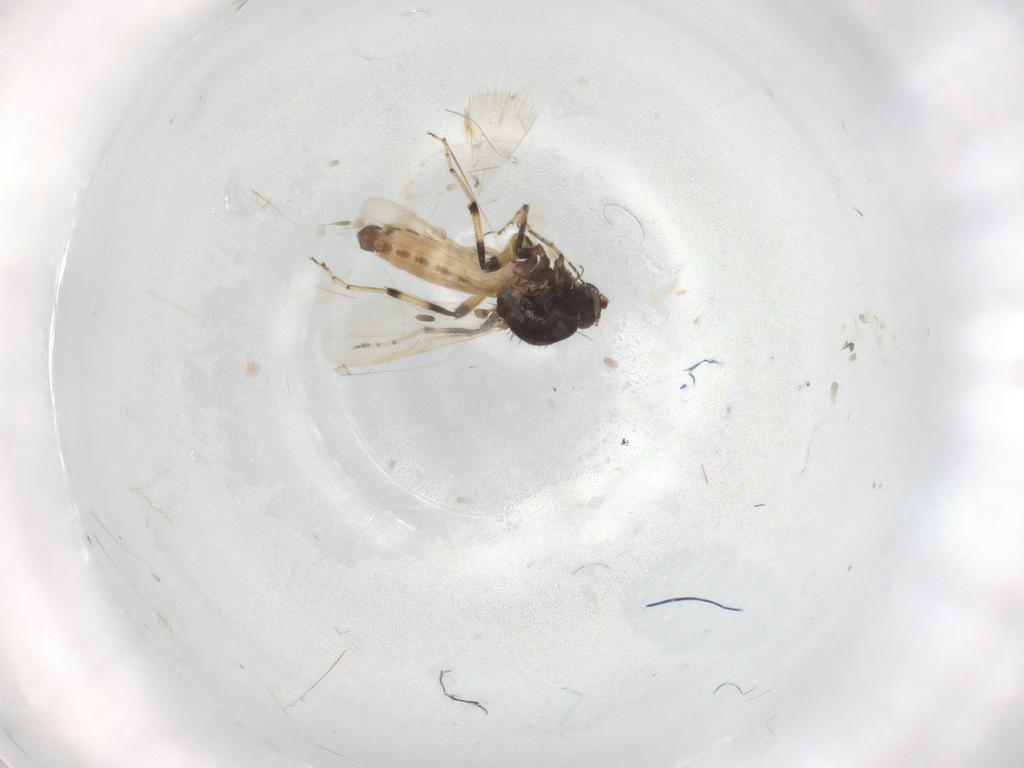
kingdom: Animalia
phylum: Arthropoda
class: Insecta
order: Diptera
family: Ceratopogonidae
